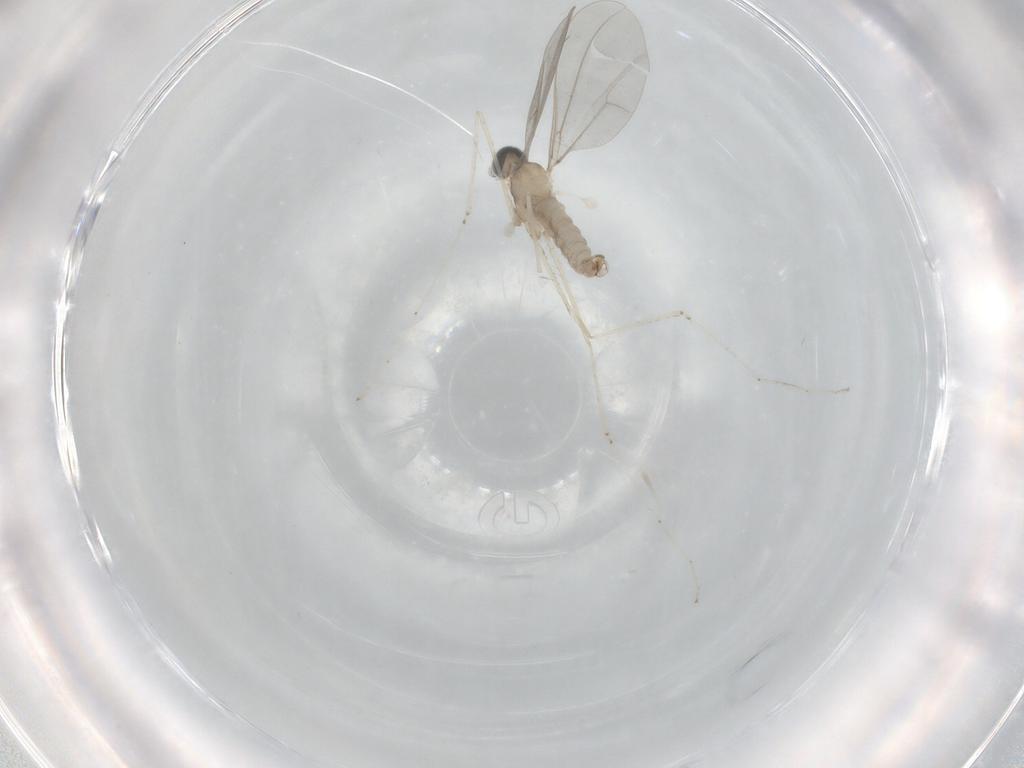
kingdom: Animalia
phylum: Arthropoda
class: Insecta
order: Diptera
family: Cecidomyiidae
